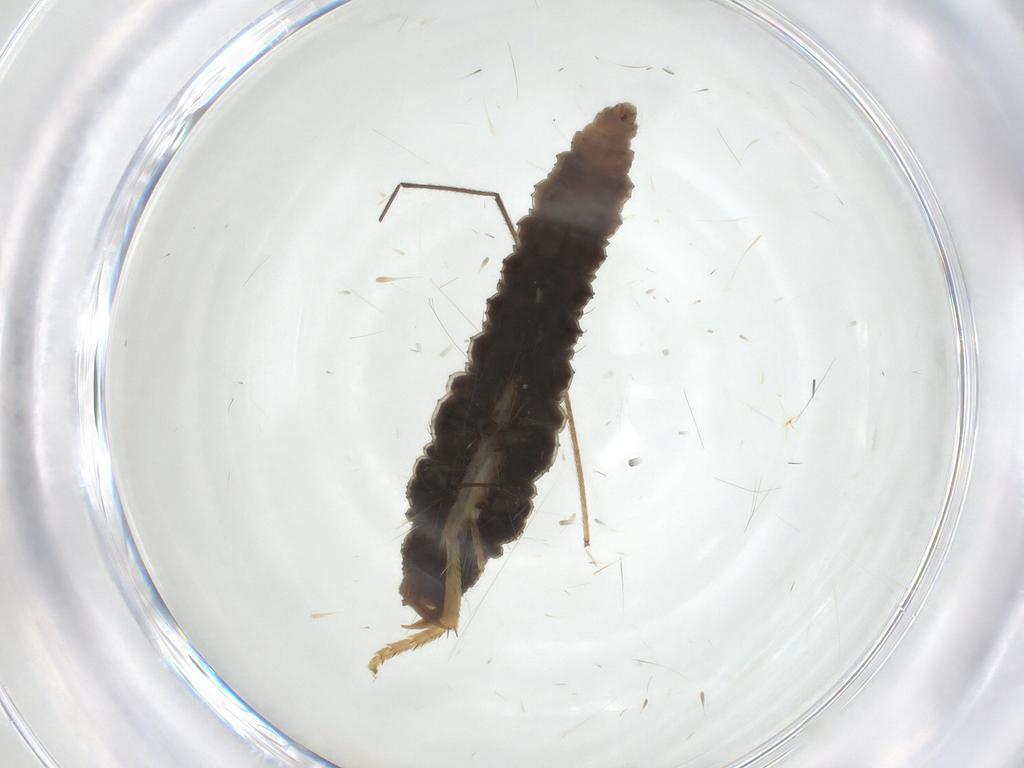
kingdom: Animalia
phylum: Arthropoda
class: Insecta
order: Neuroptera
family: Hemerobiidae
